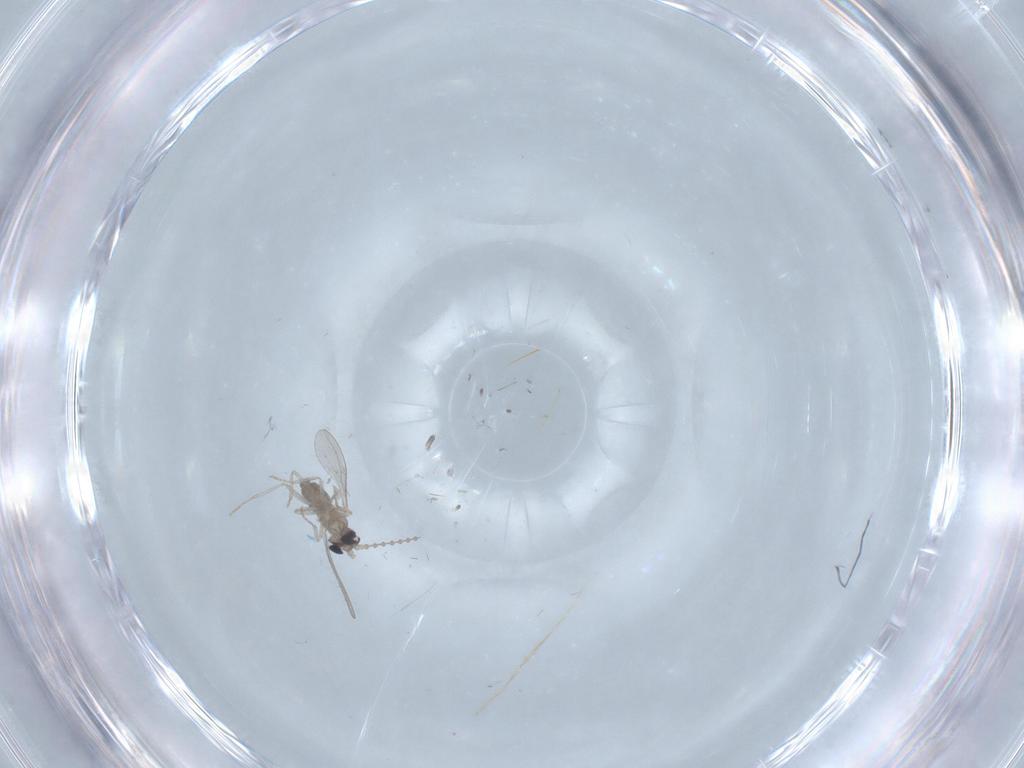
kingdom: Animalia
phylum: Arthropoda
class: Insecta
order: Diptera
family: Cecidomyiidae
